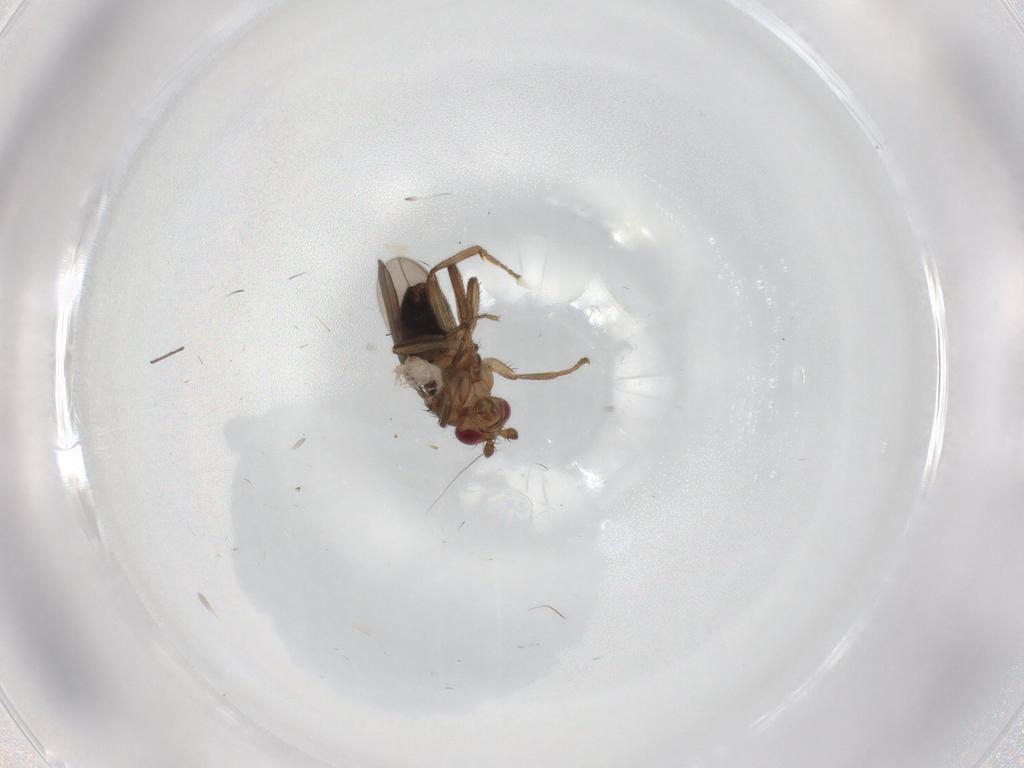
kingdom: Animalia
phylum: Arthropoda
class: Insecta
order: Diptera
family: Sphaeroceridae
